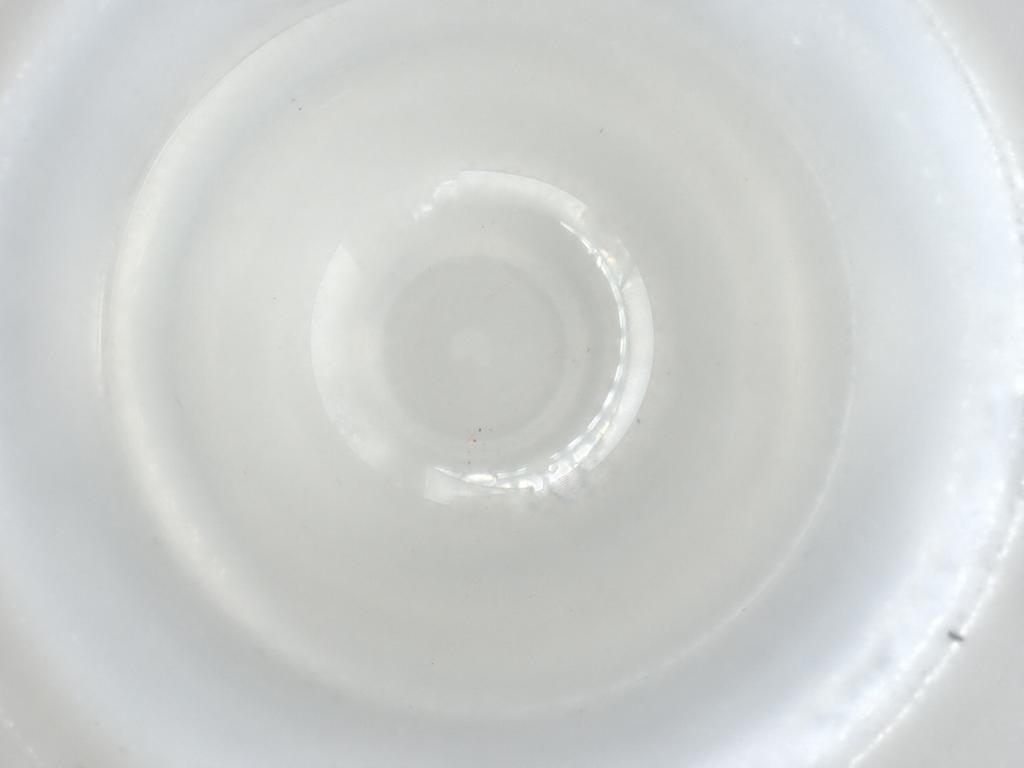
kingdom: Animalia
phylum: Arthropoda
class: Insecta
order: Diptera
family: Cecidomyiidae
